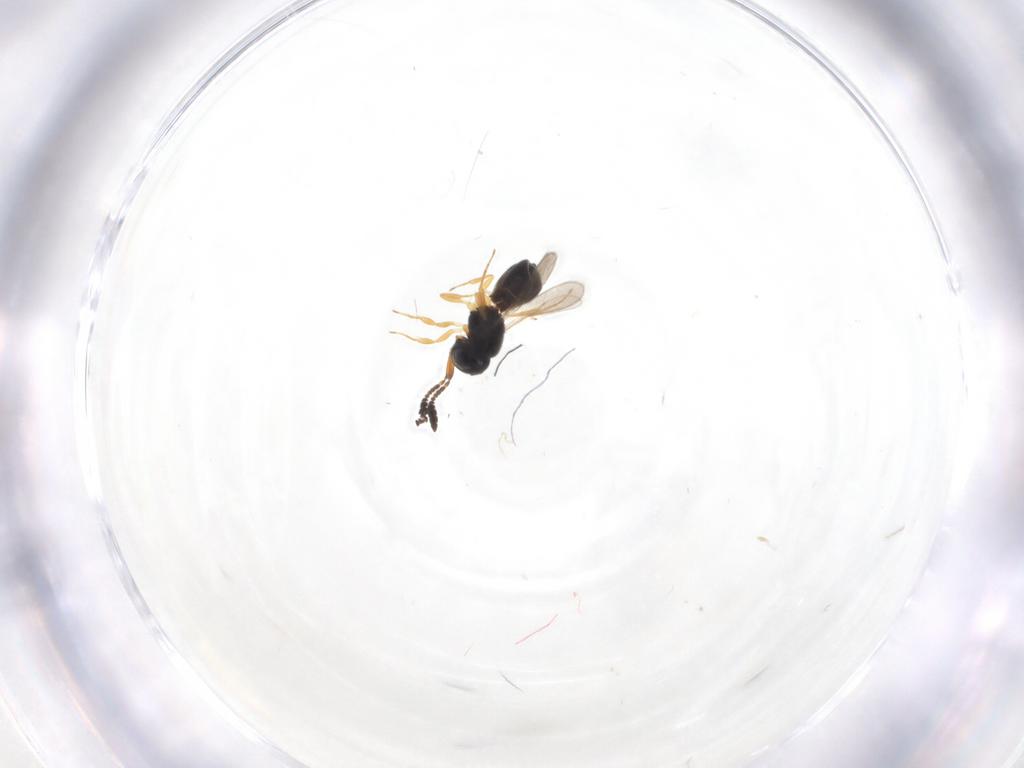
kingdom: Animalia
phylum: Arthropoda
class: Insecta
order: Hymenoptera
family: Scelionidae
